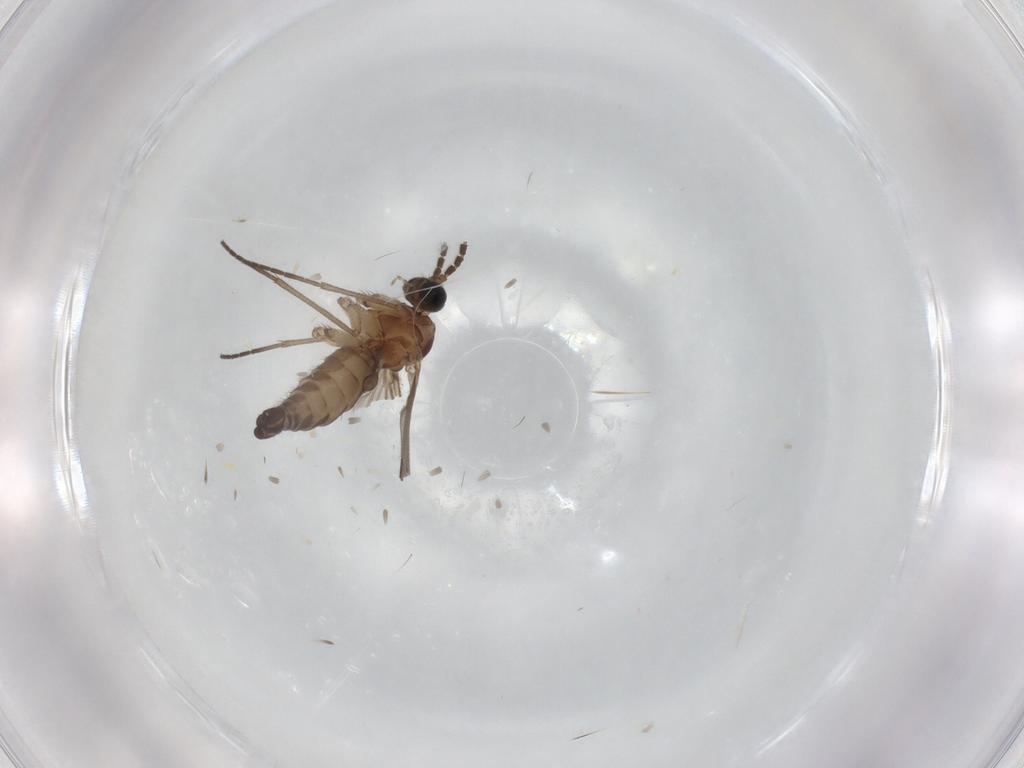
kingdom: Animalia
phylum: Arthropoda
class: Insecta
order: Diptera
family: Sciaridae
